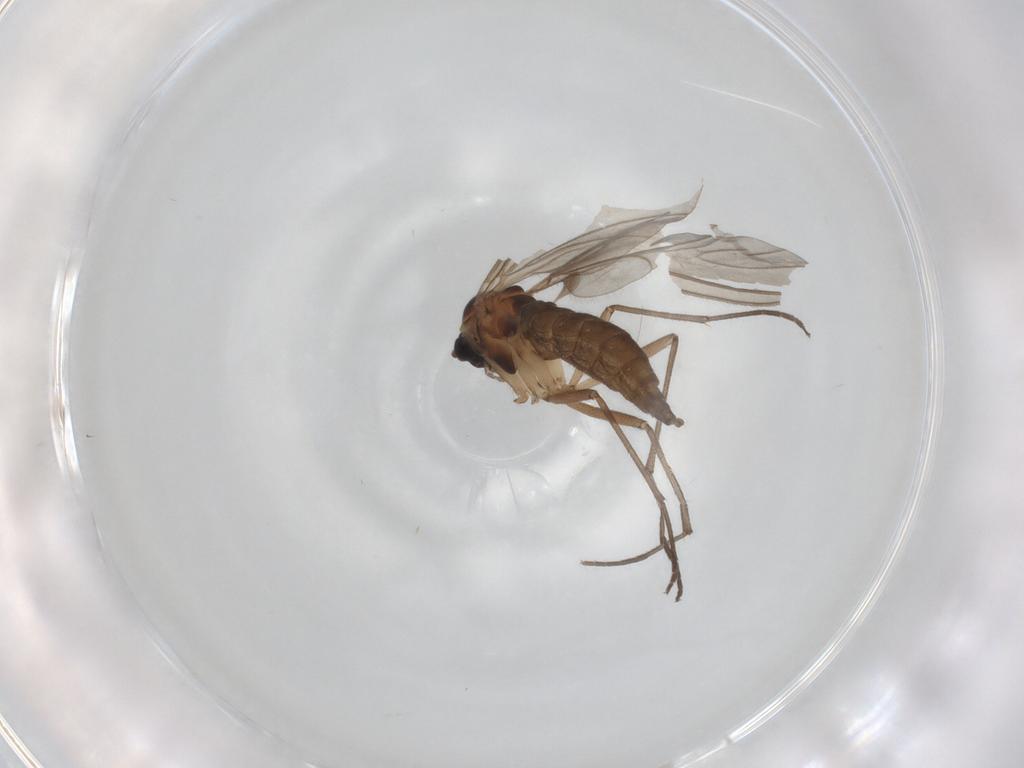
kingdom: Animalia
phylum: Arthropoda
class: Insecta
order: Diptera
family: Sciaridae
